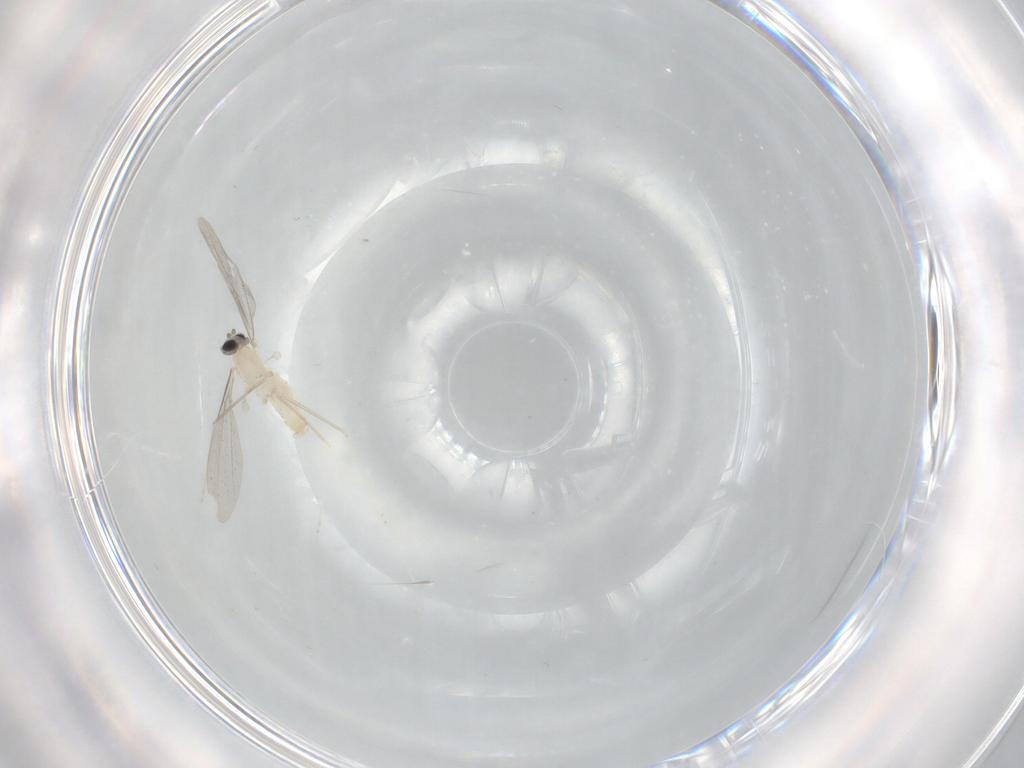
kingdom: Animalia
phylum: Arthropoda
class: Insecta
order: Diptera
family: Cecidomyiidae
